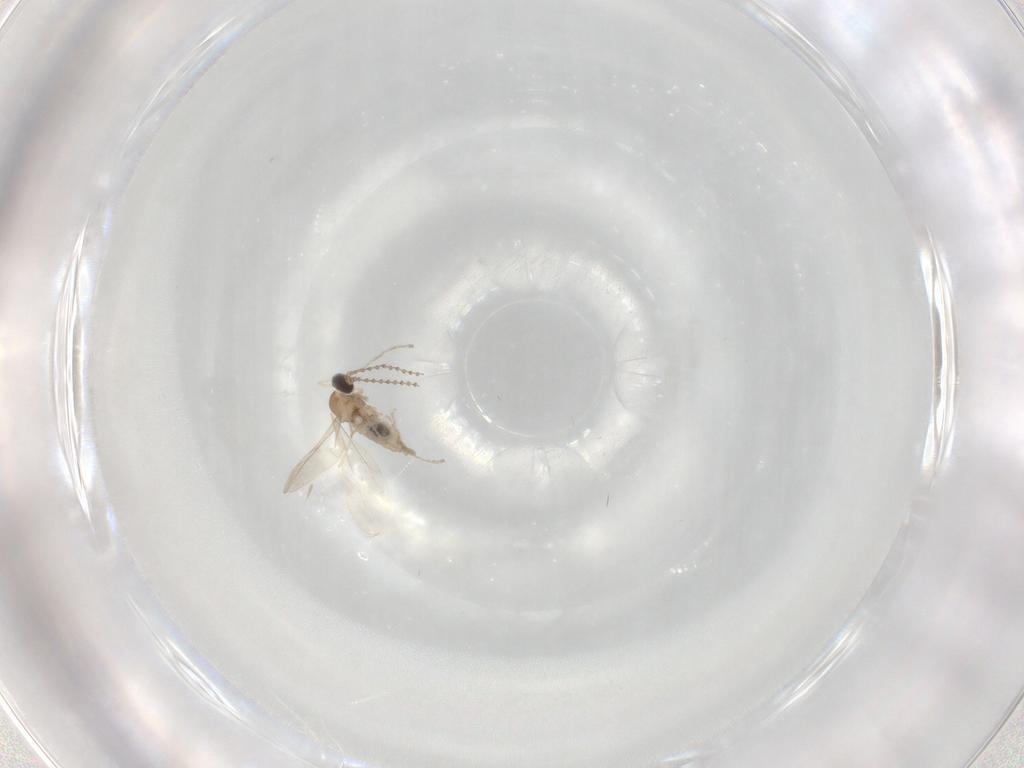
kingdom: Animalia
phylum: Arthropoda
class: Insecta
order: Diptera
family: Cecidomyiidae
